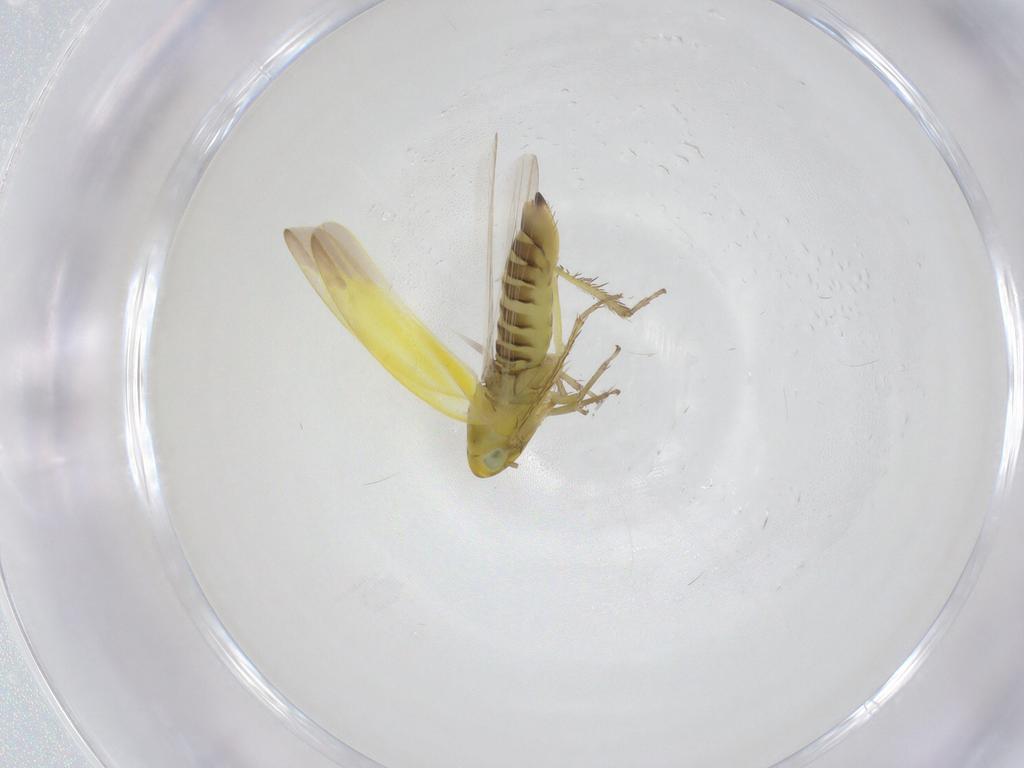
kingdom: Animalia
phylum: Arthropoda
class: Insecta
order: Hemiptera
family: Cicadellidae
